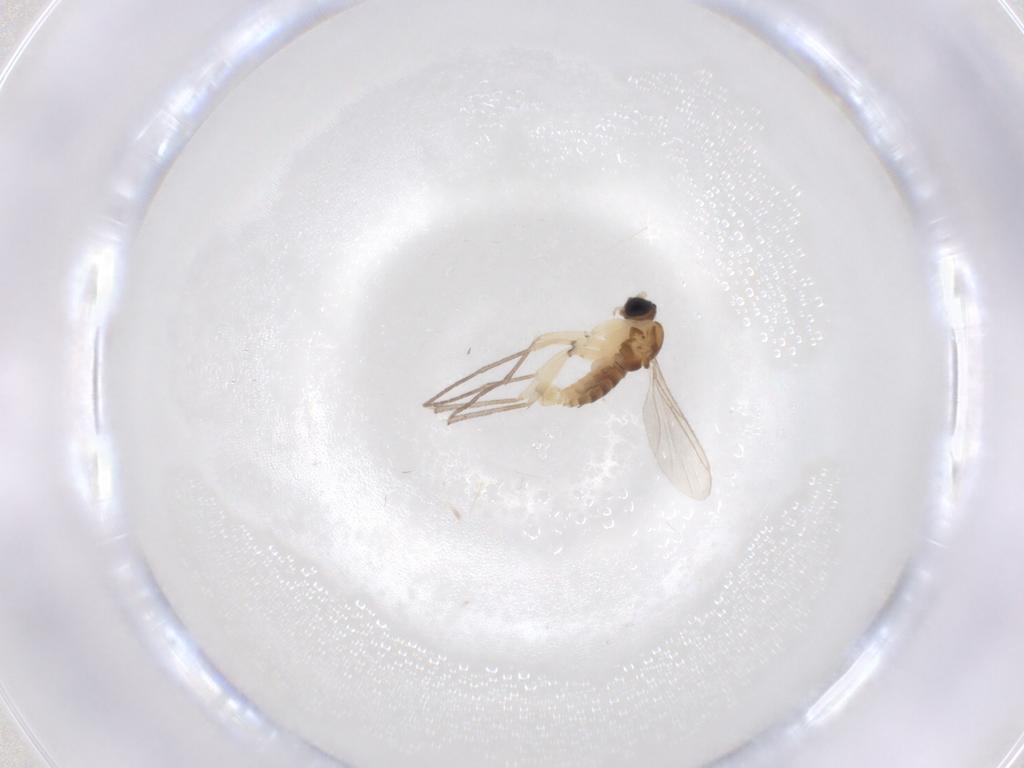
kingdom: Animalia
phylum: Arthropoda
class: Insecta
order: Diptera
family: Sciaridae
